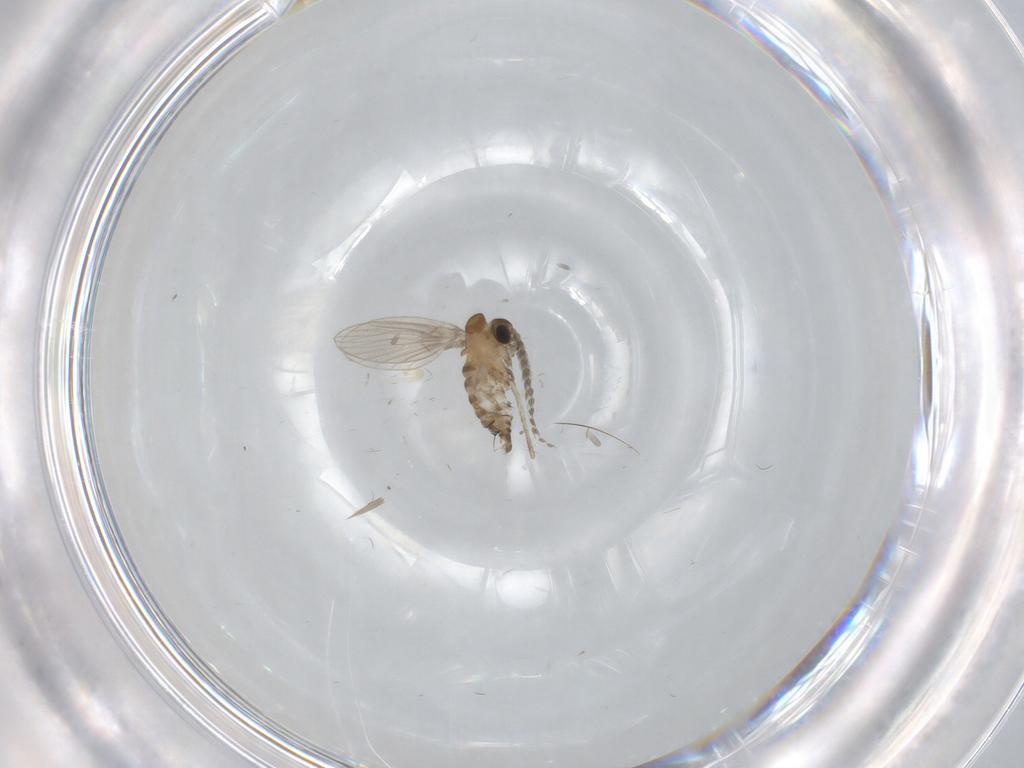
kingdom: Animalia
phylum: Arthropoda
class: Insecta
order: Diptera
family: Psychodidae
